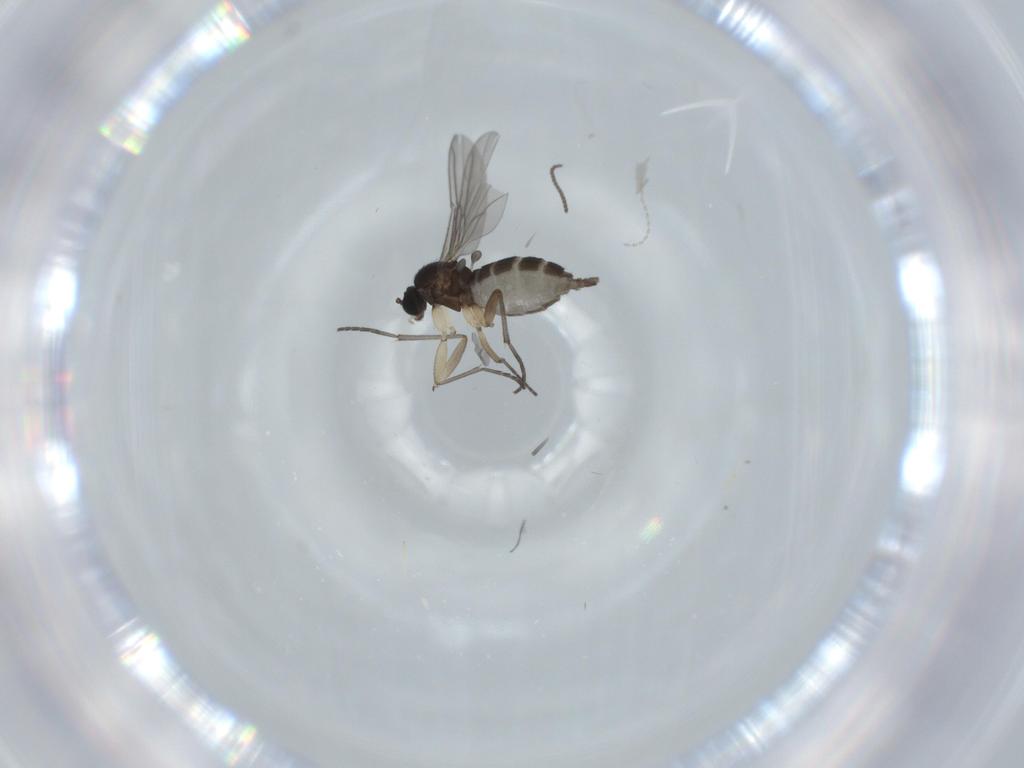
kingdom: Animalia
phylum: Arthropoda
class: Insecta
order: Diptera
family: Sciaridae
